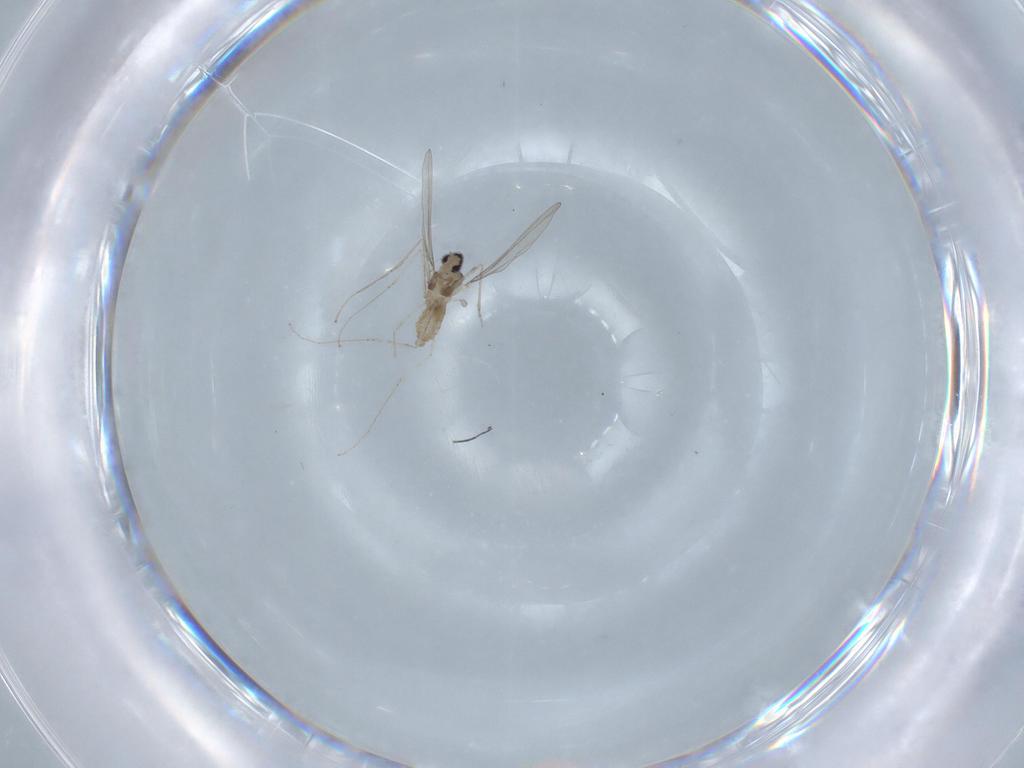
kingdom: Animalia
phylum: Arthropoda
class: Insecta
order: Diptera
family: Cecidomyiidae
